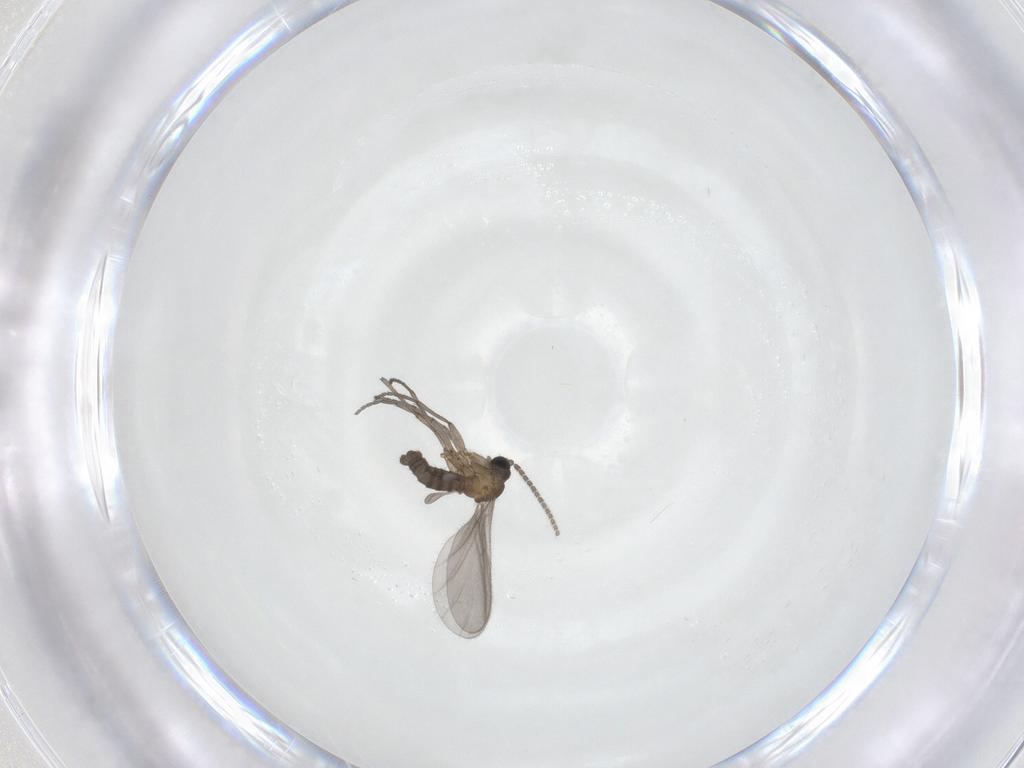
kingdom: Animalia
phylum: Arthropoda
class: Insecta
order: Diptera
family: Sciaridae
